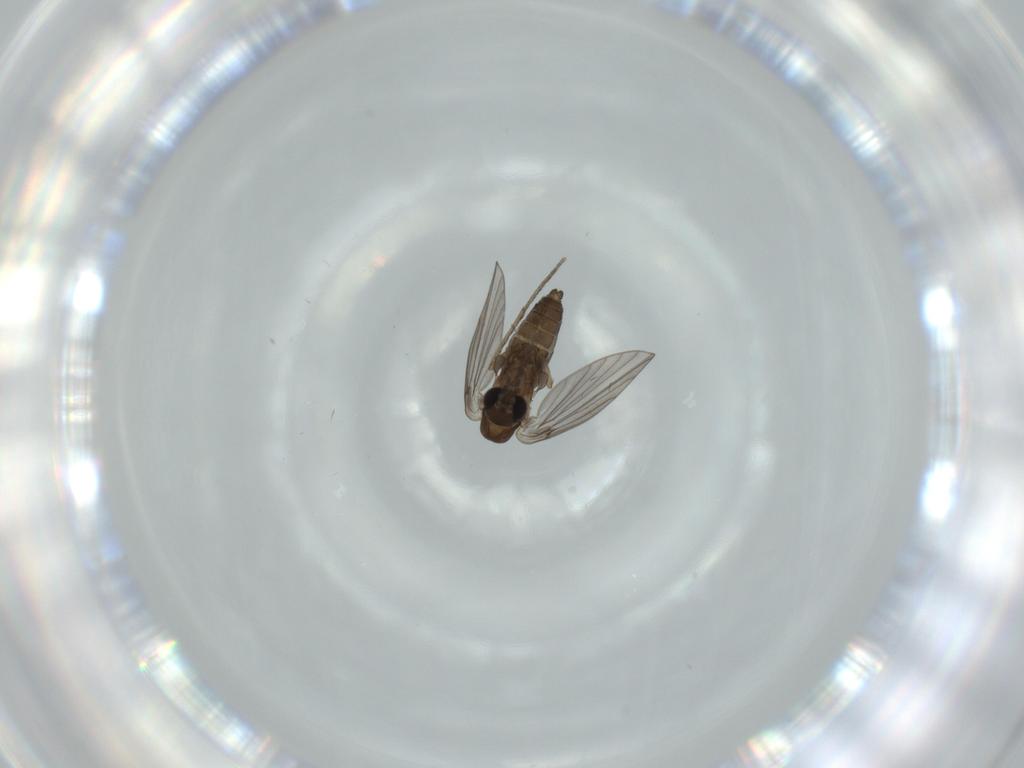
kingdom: Animalia
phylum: Arthropoda
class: Insecta
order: Diptera
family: Psychodidae
